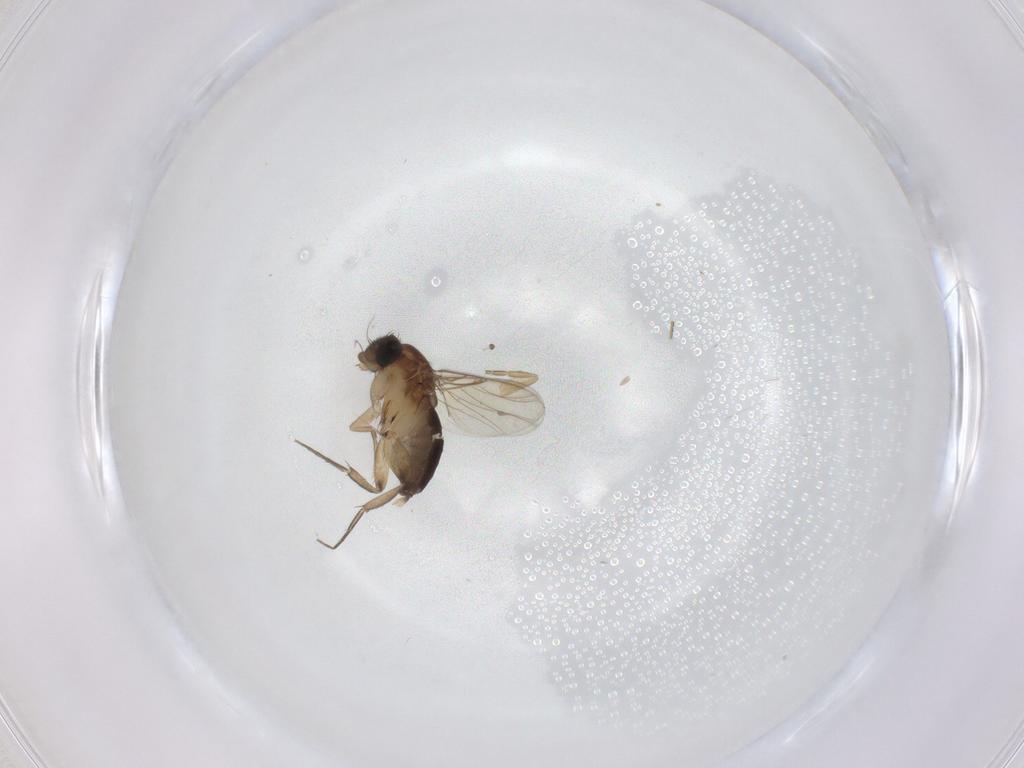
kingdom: Animalia
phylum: Arthropoda
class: Insecta
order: Diptera
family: Phoridae
